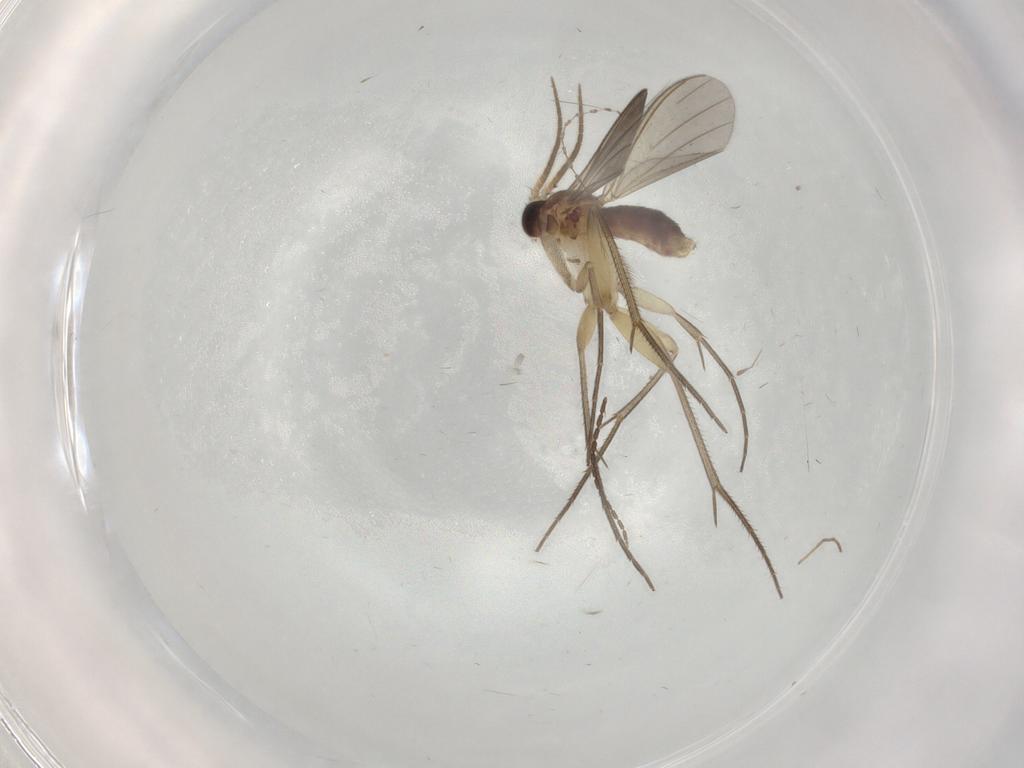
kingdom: Animalia
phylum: Arthropoda
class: Insecta
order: Diptera
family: Mycetophilidae
